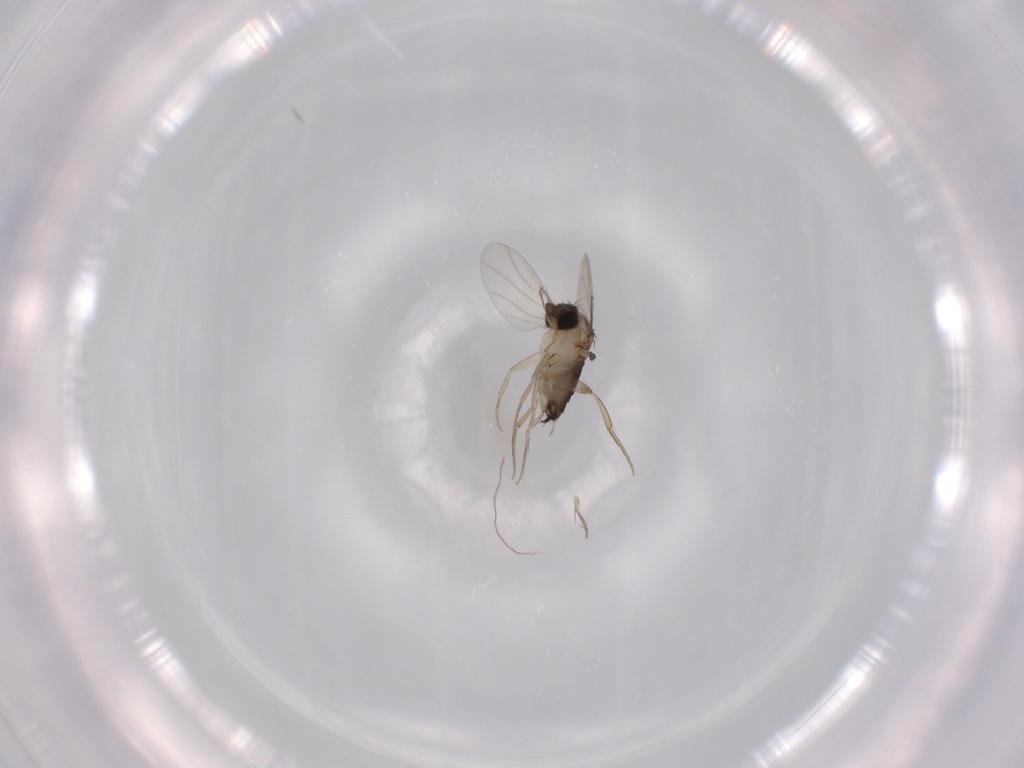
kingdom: Animalia
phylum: Arthropoda
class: Insecta
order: Diptera
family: Phoridae
